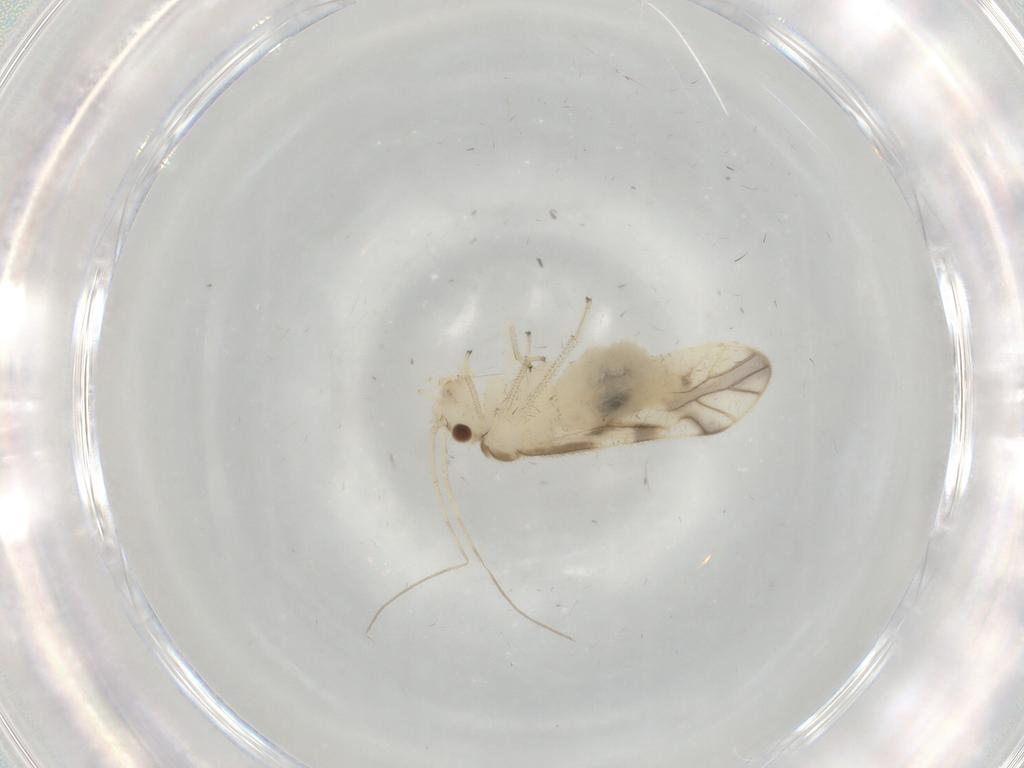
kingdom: Animalia
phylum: Arthropoda
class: Insecta
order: Psocodea
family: Caeciliusidae
